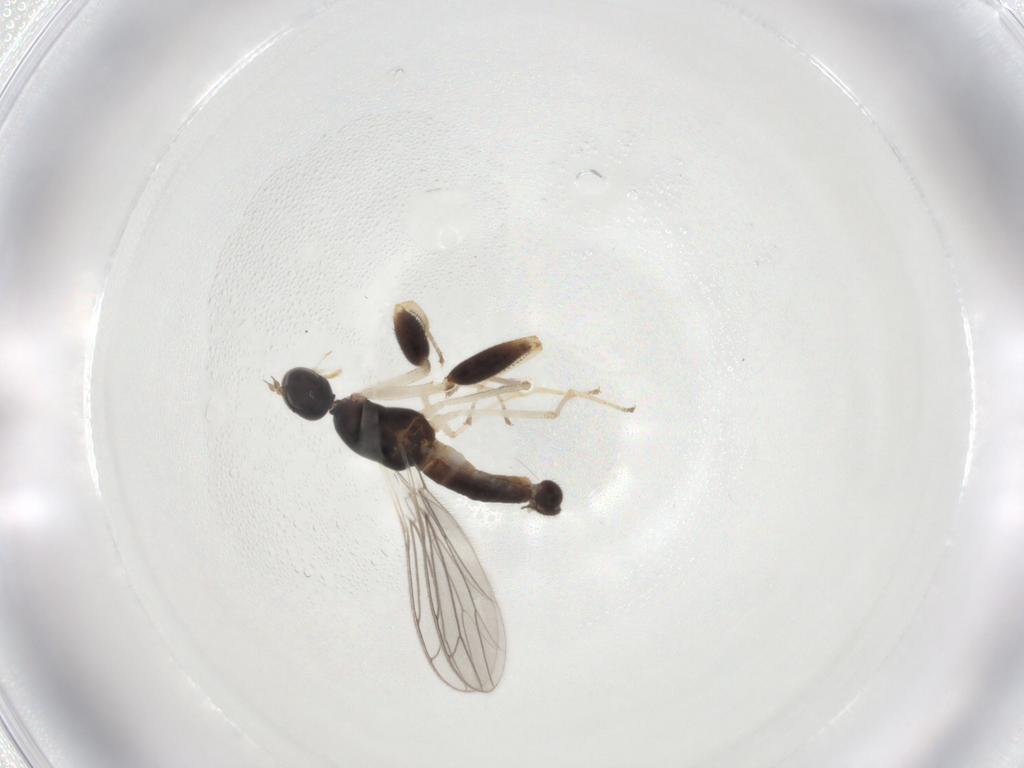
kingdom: Animalia
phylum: Arthropoda
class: Insecta
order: Diptera
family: Empididae
